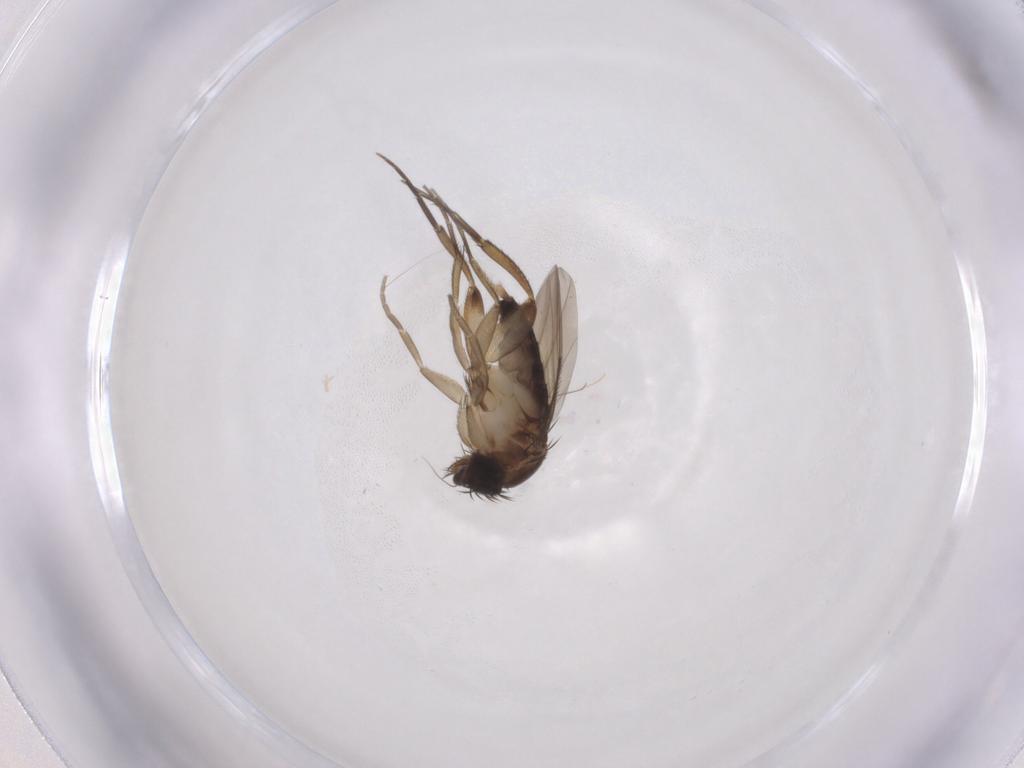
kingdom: Animalia
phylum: Arthropoda
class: Insecta
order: Diptera
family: Phoridae
